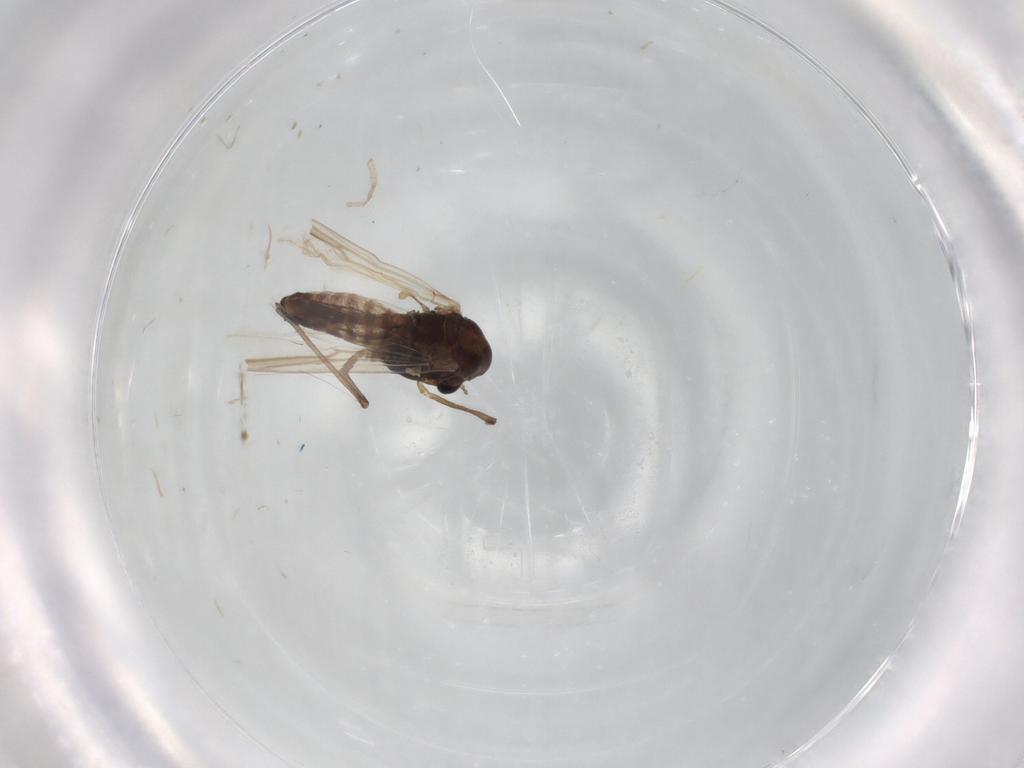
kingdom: Animalia
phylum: Arthropoda
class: Insecta
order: Diptera
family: Chironomidae
